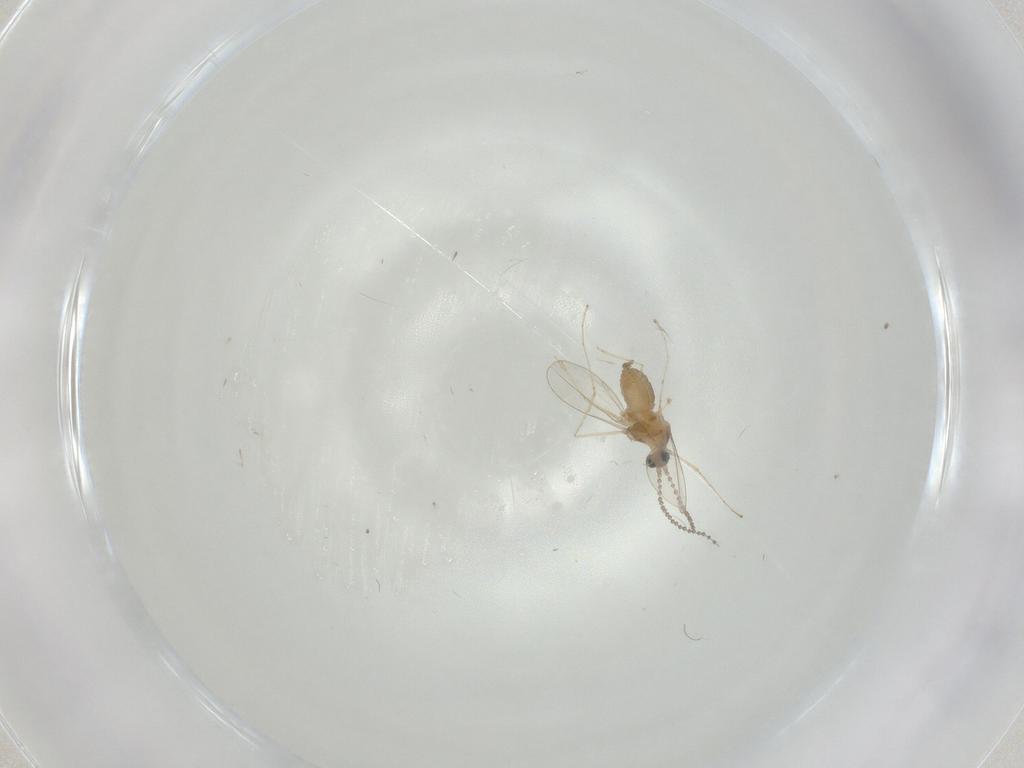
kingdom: Animalia
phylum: Arthropoda
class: Insecta
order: Diptera
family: Cecidomyiidae
